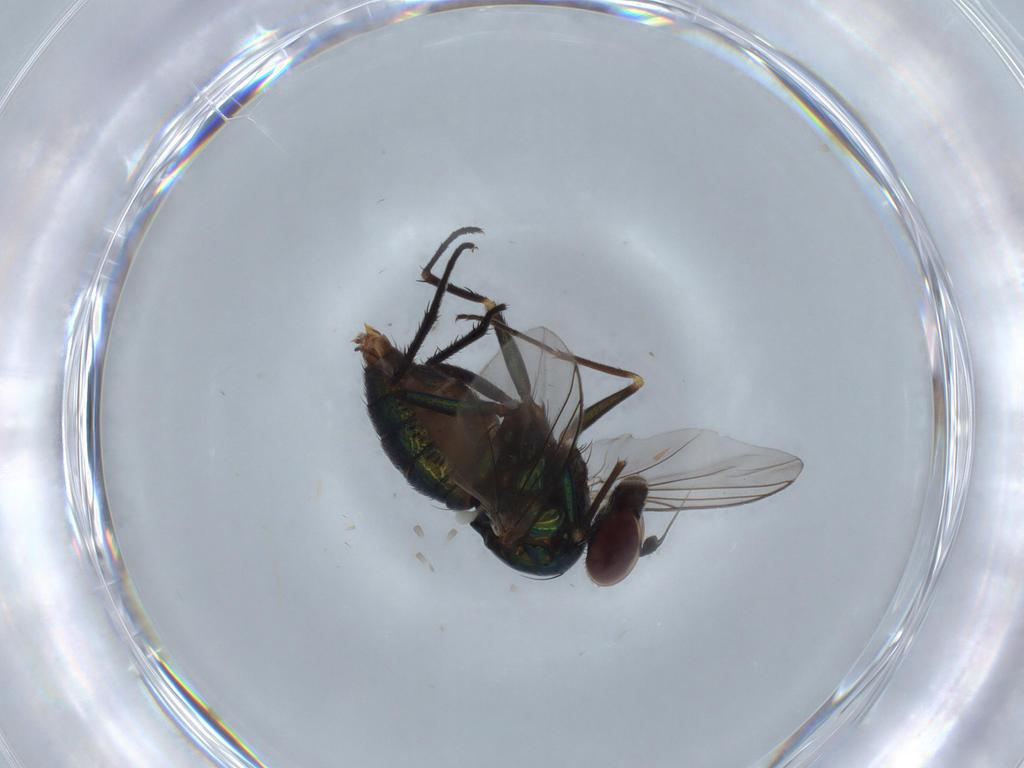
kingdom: Animalia
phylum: Arthropoda
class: Insecta
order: Diptera
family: Dolichopodidae
